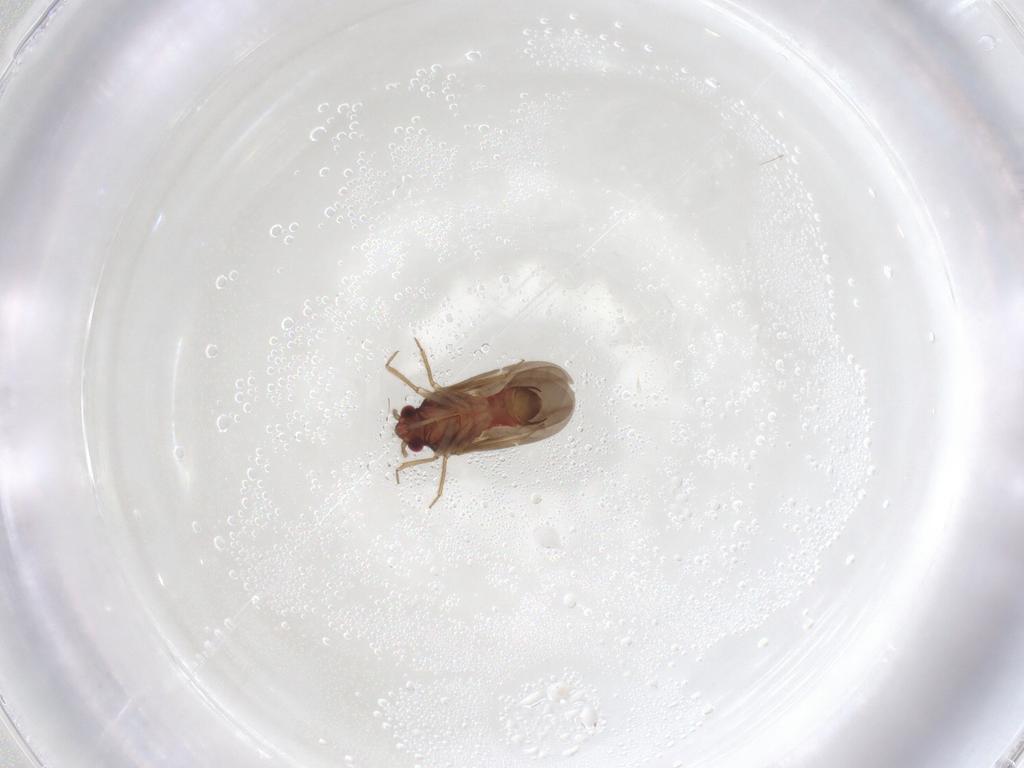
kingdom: Animalia
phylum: Arthropoda
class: Insecta
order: Hemiptera
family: Ceratocombidae
